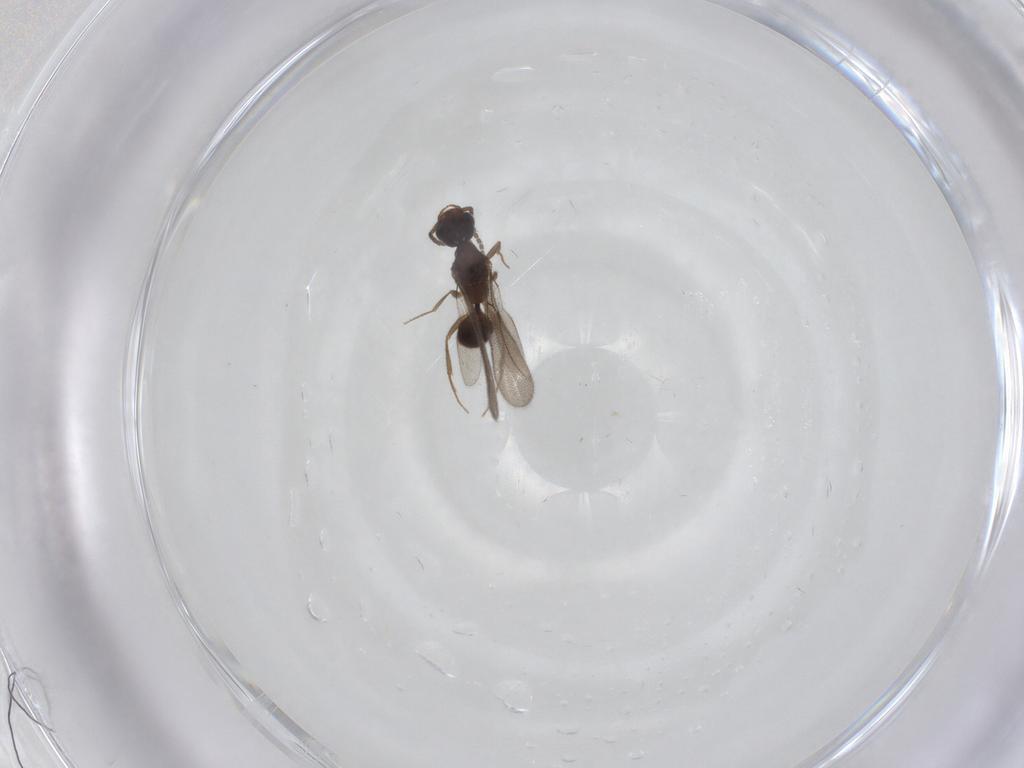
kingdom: Animalia
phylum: Arthropoda
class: Insecta
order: Hymenoptera
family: Bethylidae
